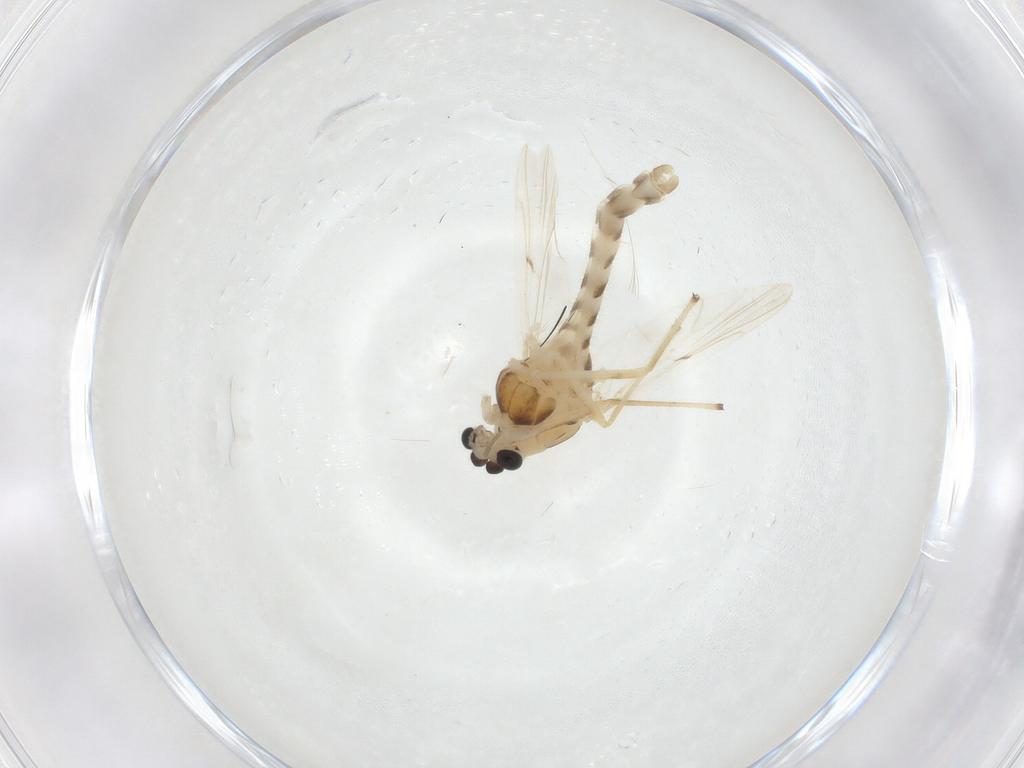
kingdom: Animalia
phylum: Arthropoda
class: Insecta
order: Diptera
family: Chironomidae
